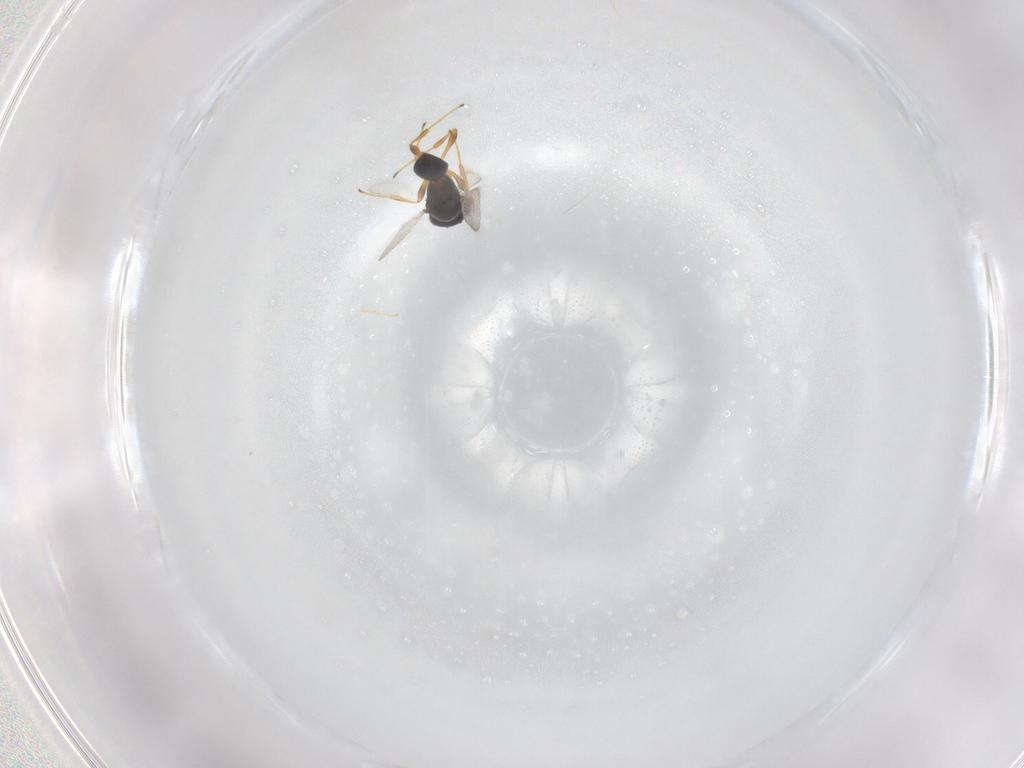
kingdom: Animalia
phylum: Arthropoda
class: Insecta
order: Hymenoptera
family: Platygastridae
